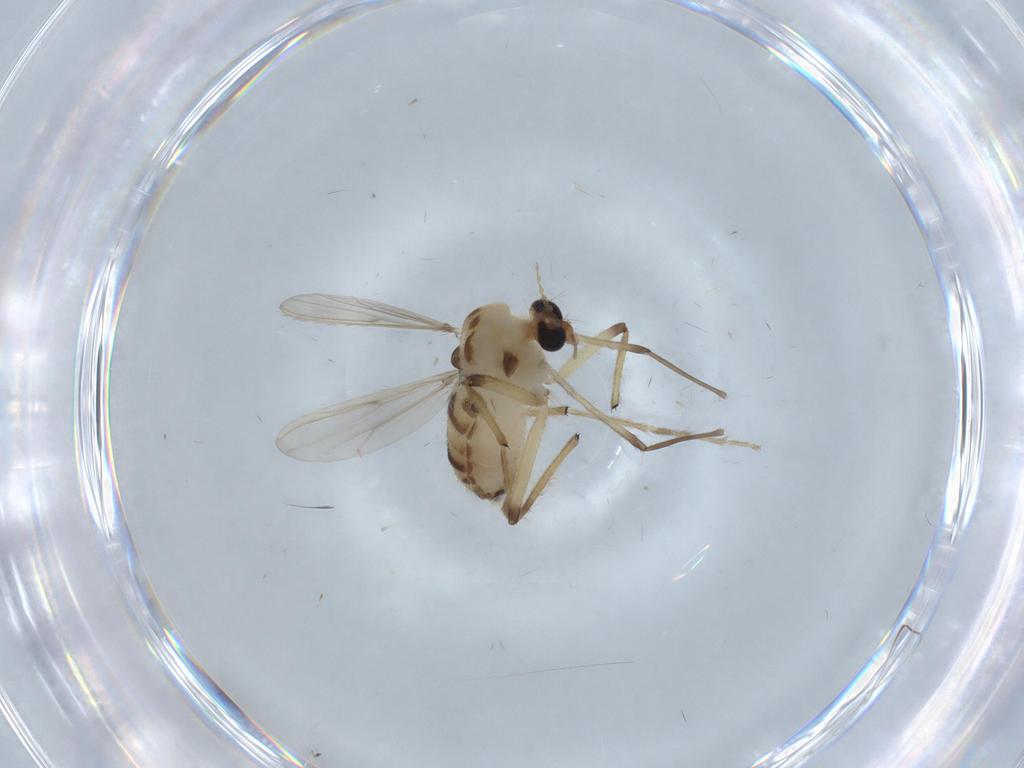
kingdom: Animalia
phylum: Arthropoda
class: Insecta
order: Diptera
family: Chironomidae
